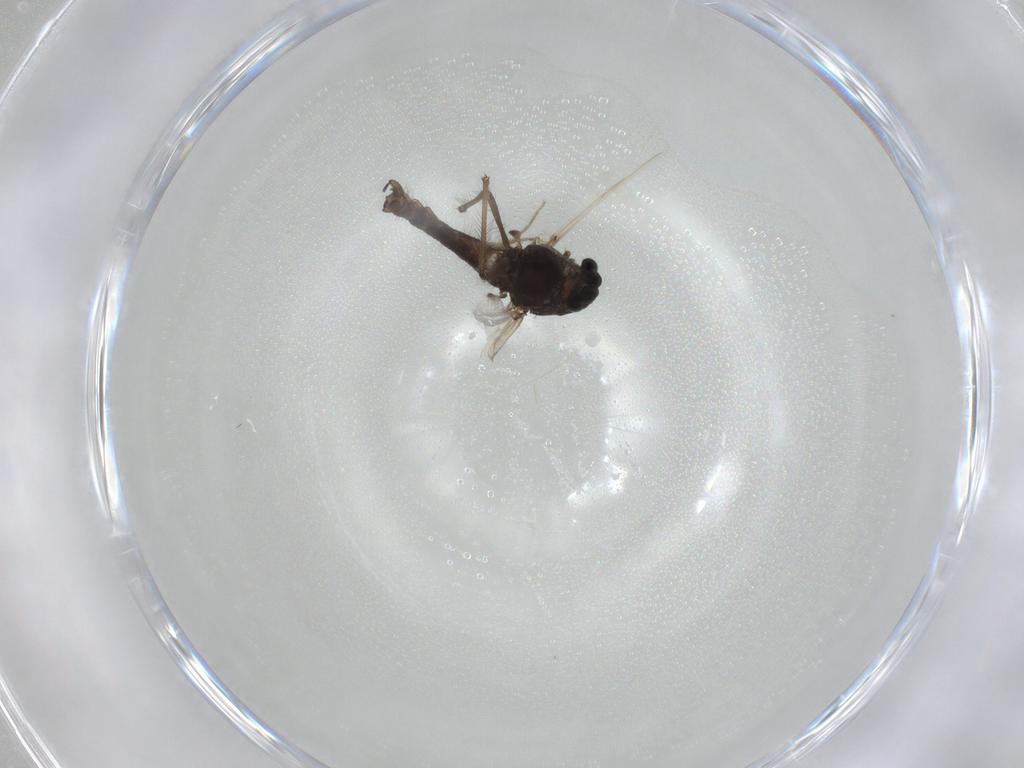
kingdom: Animalia
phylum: Arthropoda
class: Insecta
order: Diptera
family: Chironomidae
